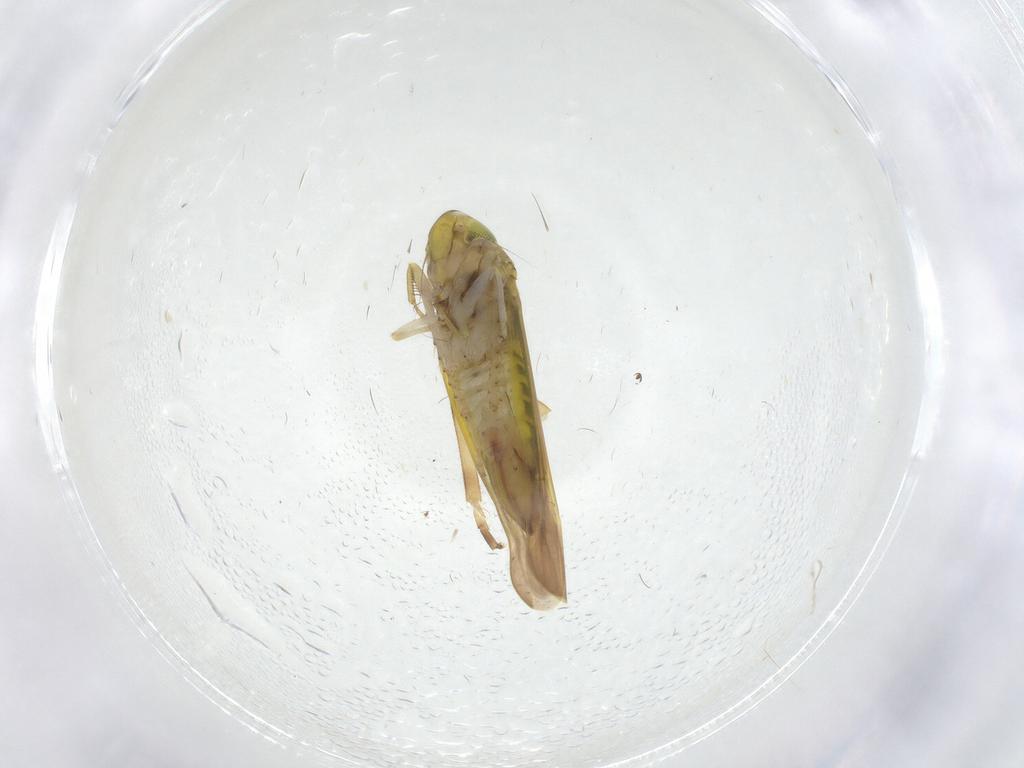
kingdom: Animalia
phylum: Arthropoda
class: Insecta
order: Hemiptera
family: Cicadellidae
